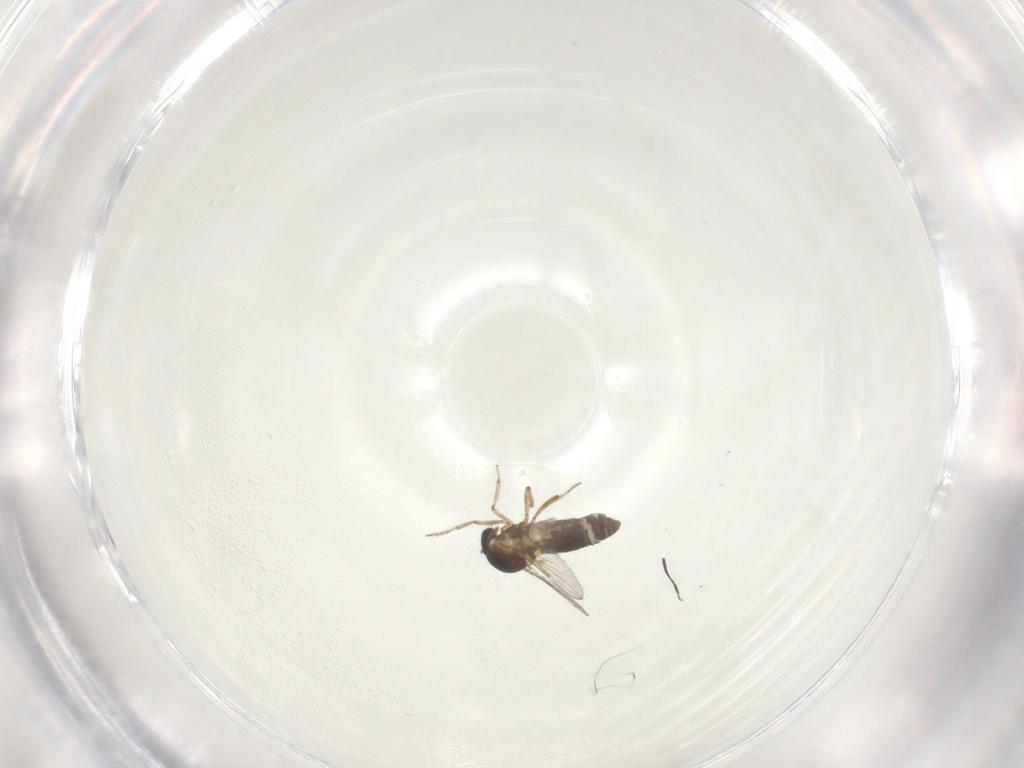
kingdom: Animalia
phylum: Arthropoda
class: Insecta
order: Diptera
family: Ceratopogonidae
